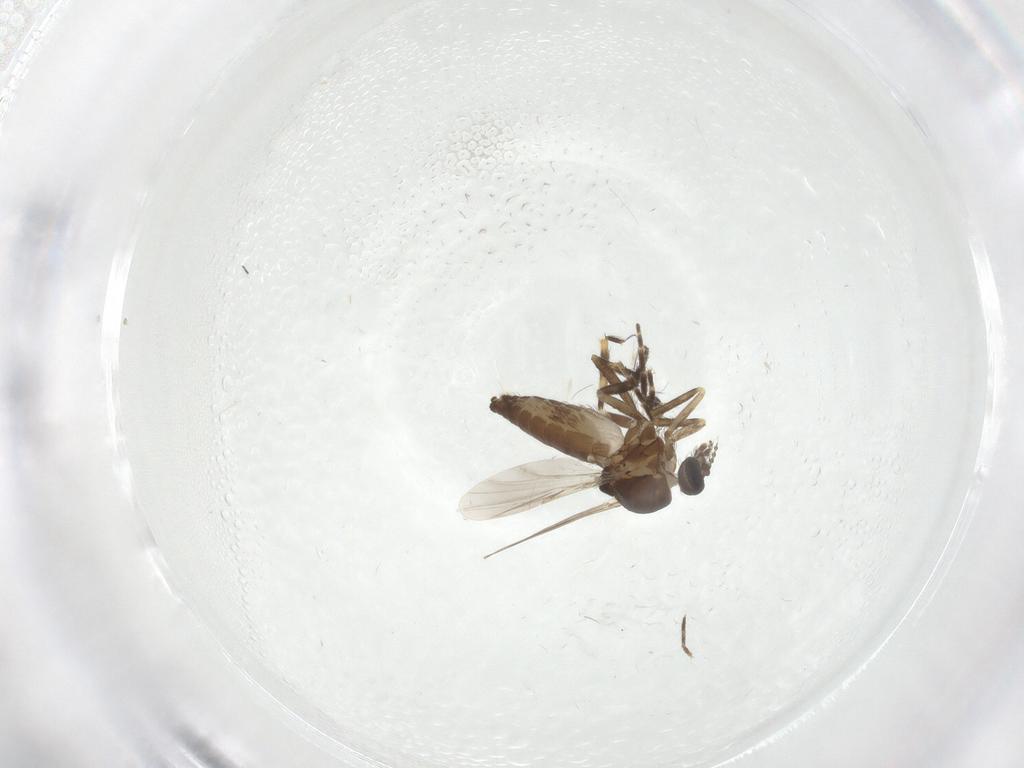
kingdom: Animalia
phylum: Arthropoda
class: Insecta
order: Diptera
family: Ceratopogonidae
